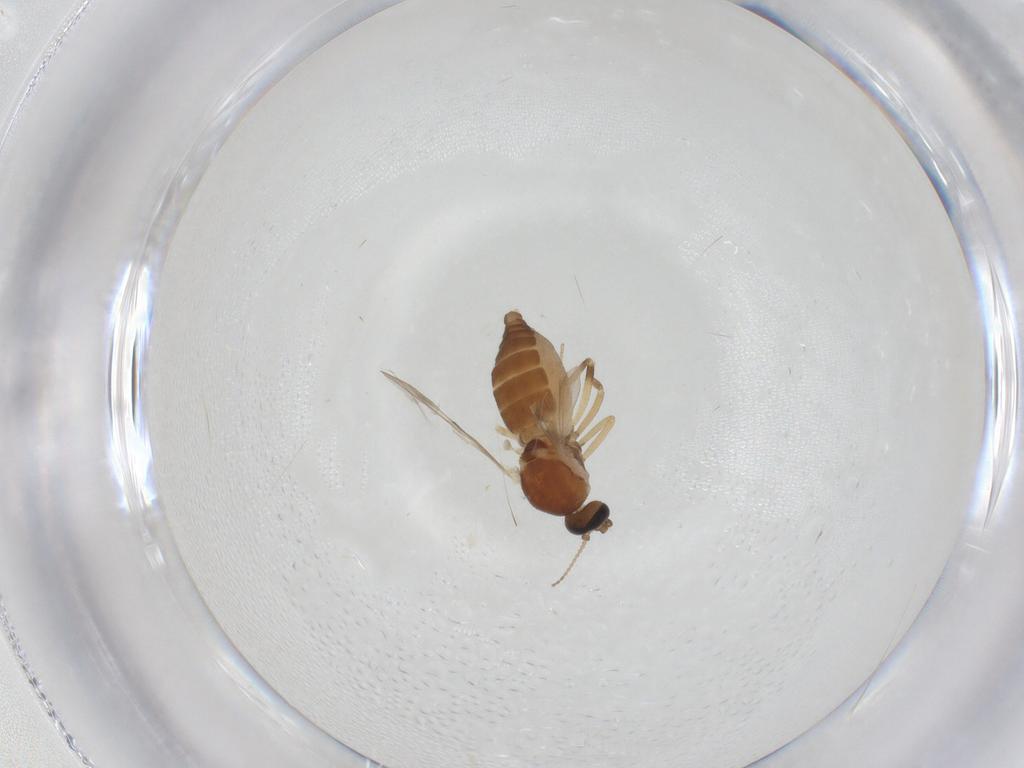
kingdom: Animalia
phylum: Arthropoda
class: Insecta
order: Diptera
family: Ceratopogonidae
